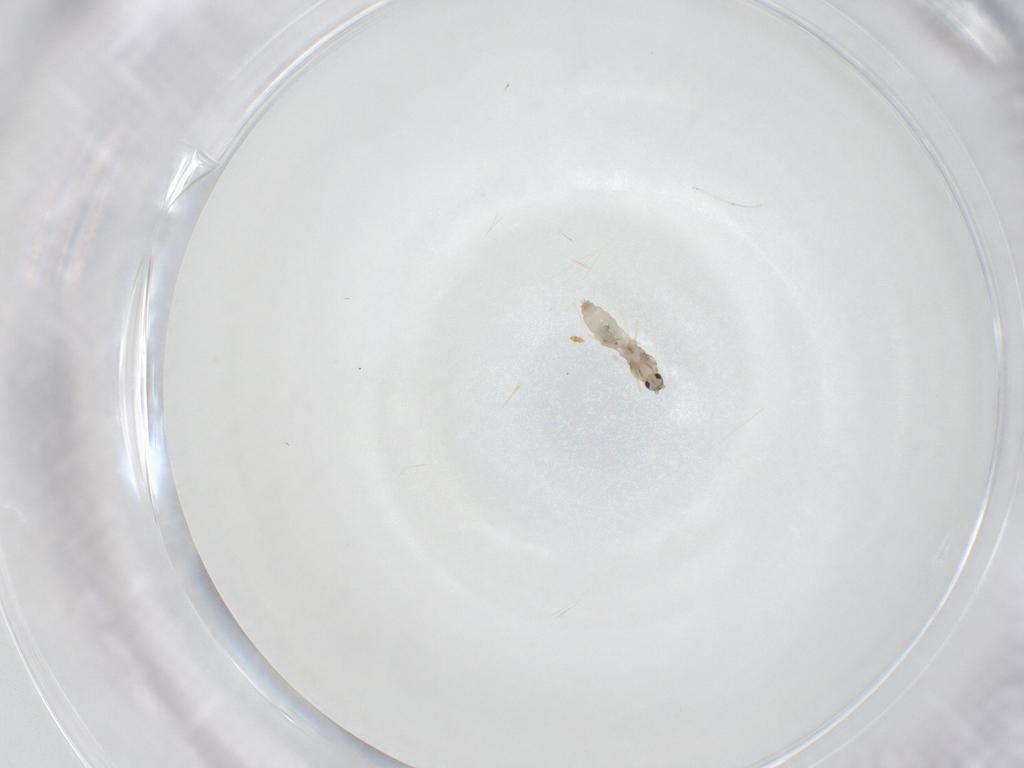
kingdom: Animalia
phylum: Arthropoda
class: Insecta
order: Diptera
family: Cecidomyiidae
